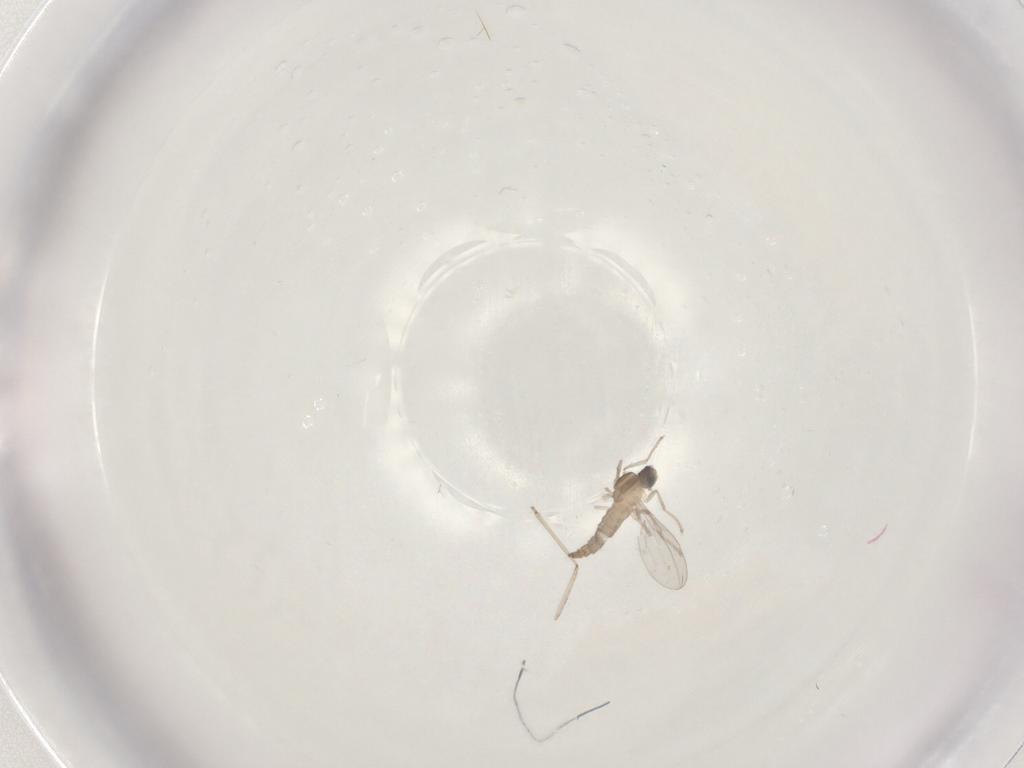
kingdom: Animalia
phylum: Arthropoda
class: Insecta
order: Diptera
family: Cecidomyiidae
